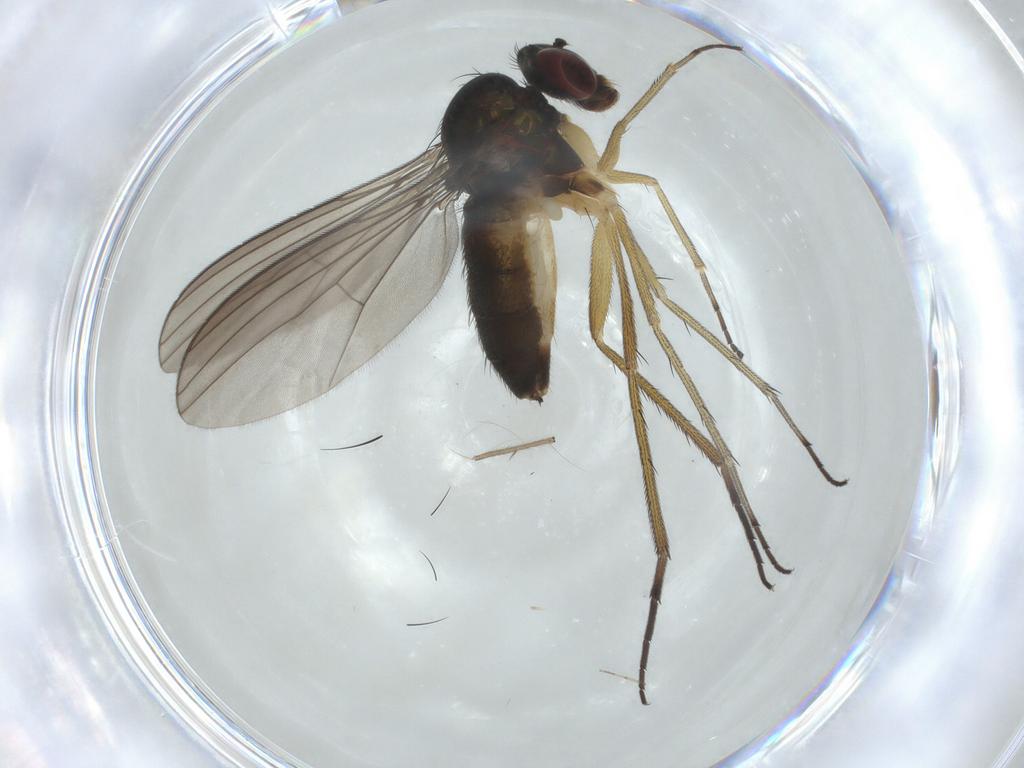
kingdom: Animalia
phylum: Arthropoda
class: Insecta
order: Diptera
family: Dolichopodidae
